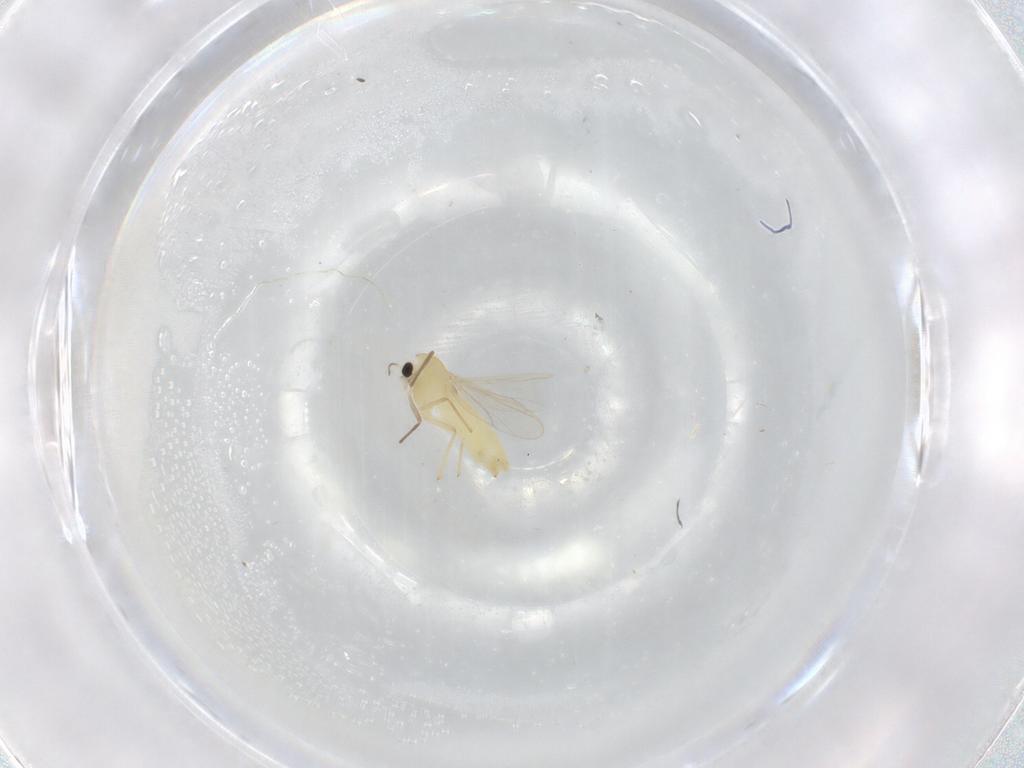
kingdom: Animalia
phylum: Arthropoda
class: Insecta
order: Diptera
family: Chironomidae
